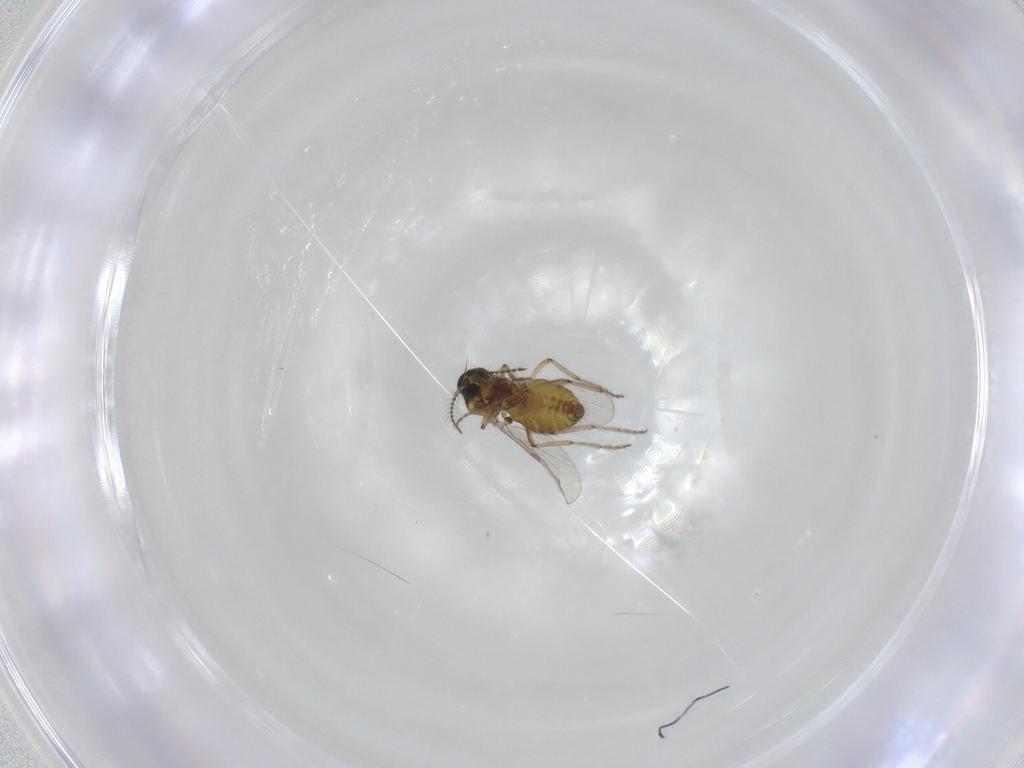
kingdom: Animalia
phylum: Arthropoda
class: Insecta
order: Diptera
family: Ceratopogonidae
